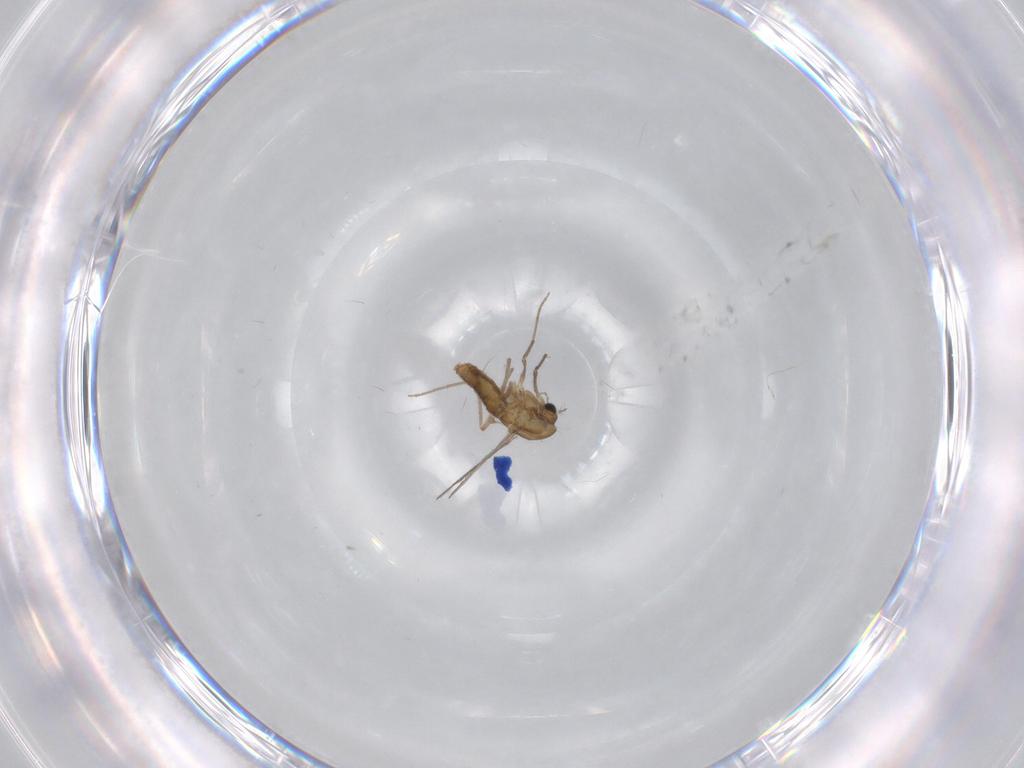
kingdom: Animalia
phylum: Arthropoda
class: Insecta
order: Diptera
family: Chironomidae
